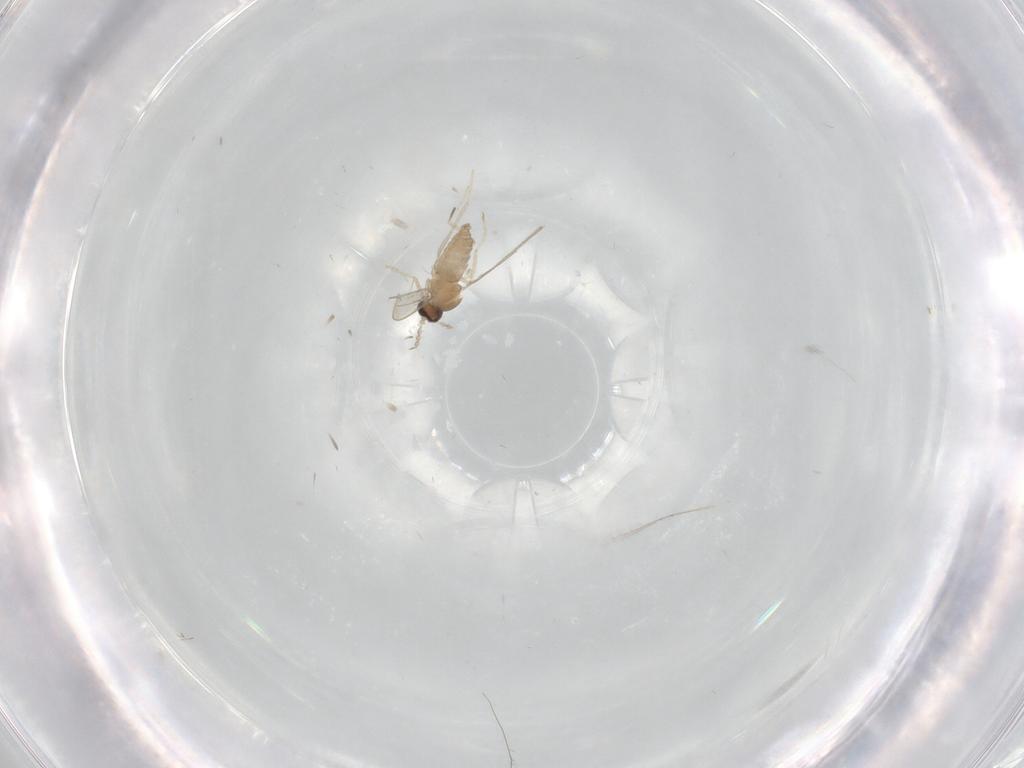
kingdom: Animalia
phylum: Arthropoda
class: Insecta
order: Diptera
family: Cecidomyiidae
